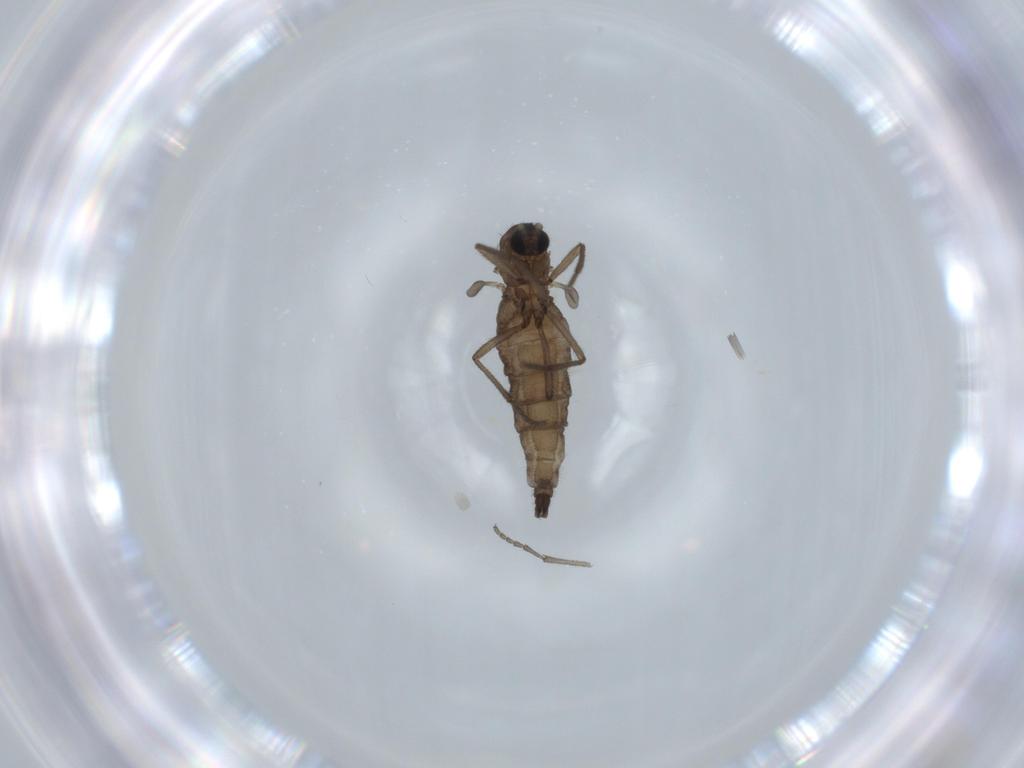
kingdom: Animalia
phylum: Arthropoda
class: Insecta
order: Diptera
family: Sciaridae
